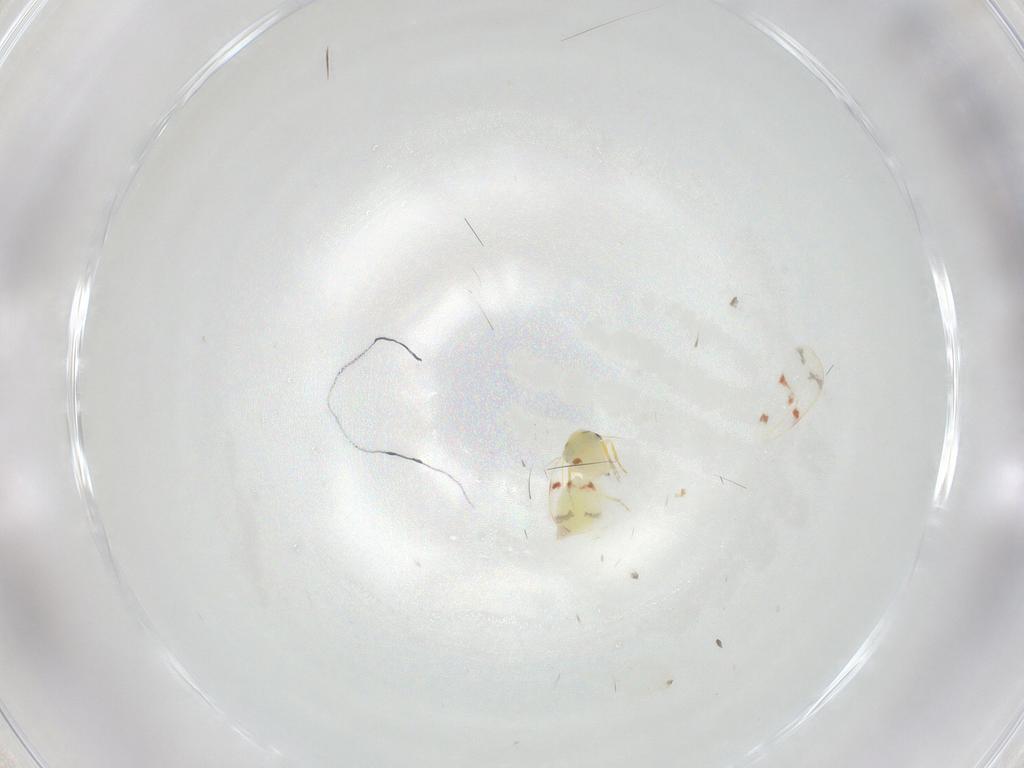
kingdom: Animalia
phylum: Arthropoda
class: Insecta
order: Hemiptera
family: Aleyrodidae
